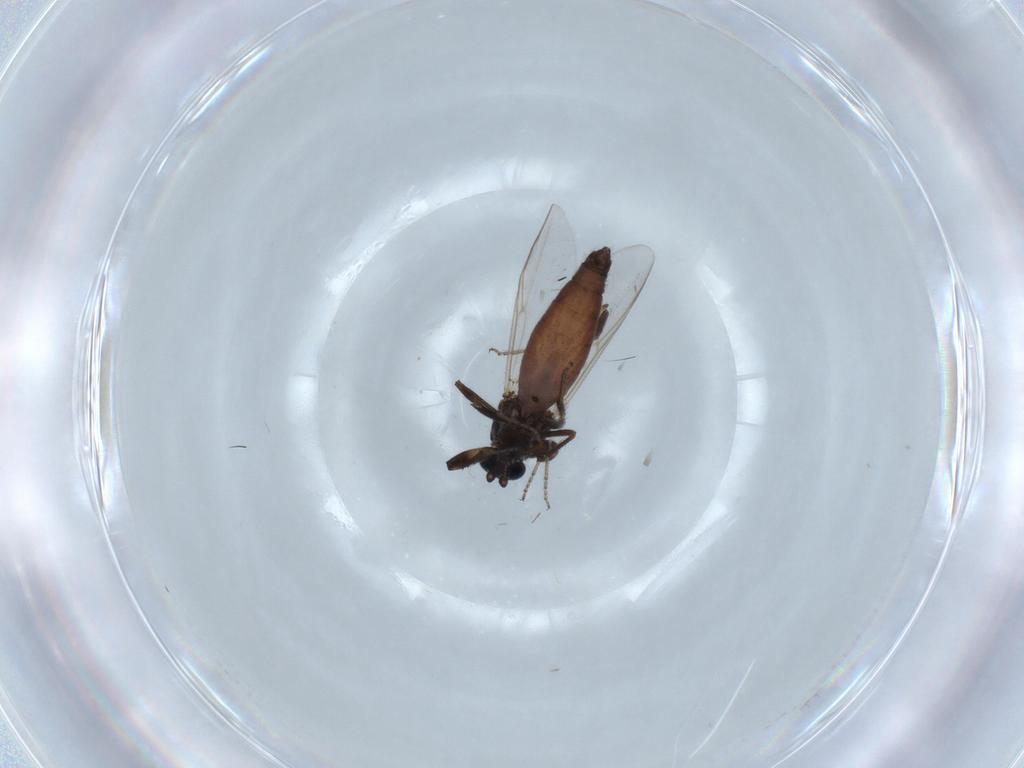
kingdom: Animalia
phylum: Arthropoda
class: Insecta
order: Diptera
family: Ceratopogonidae
